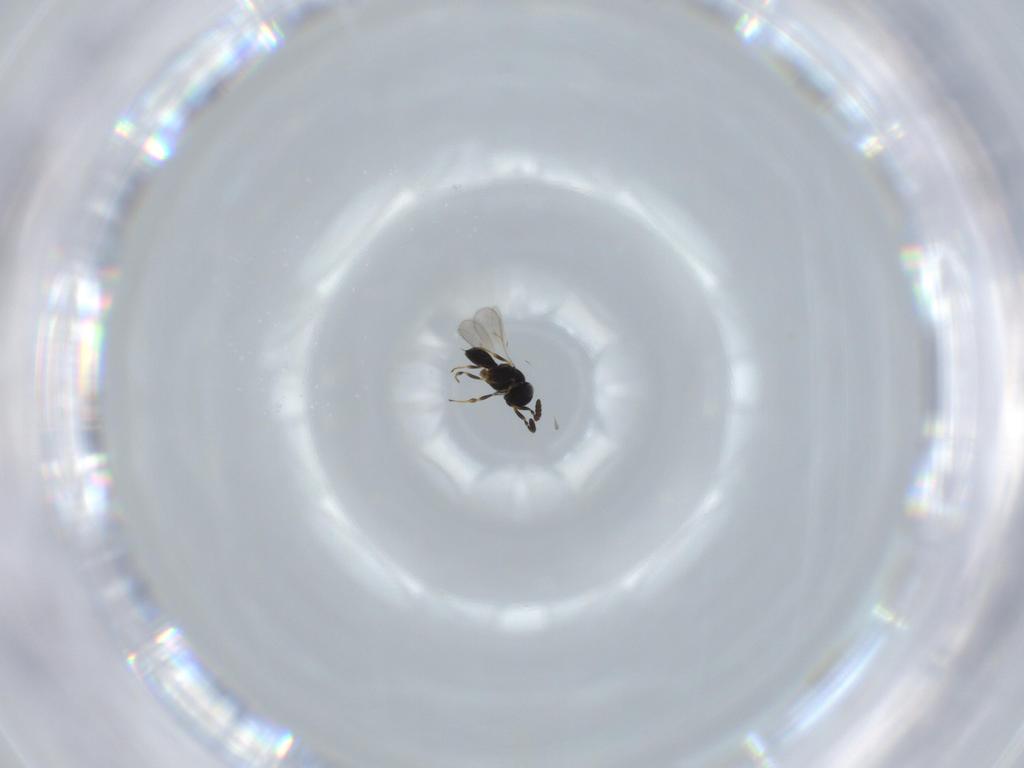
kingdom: Animalia
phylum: Arthropoda
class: Insecta
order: Hymenoptera
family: Scelionidae
